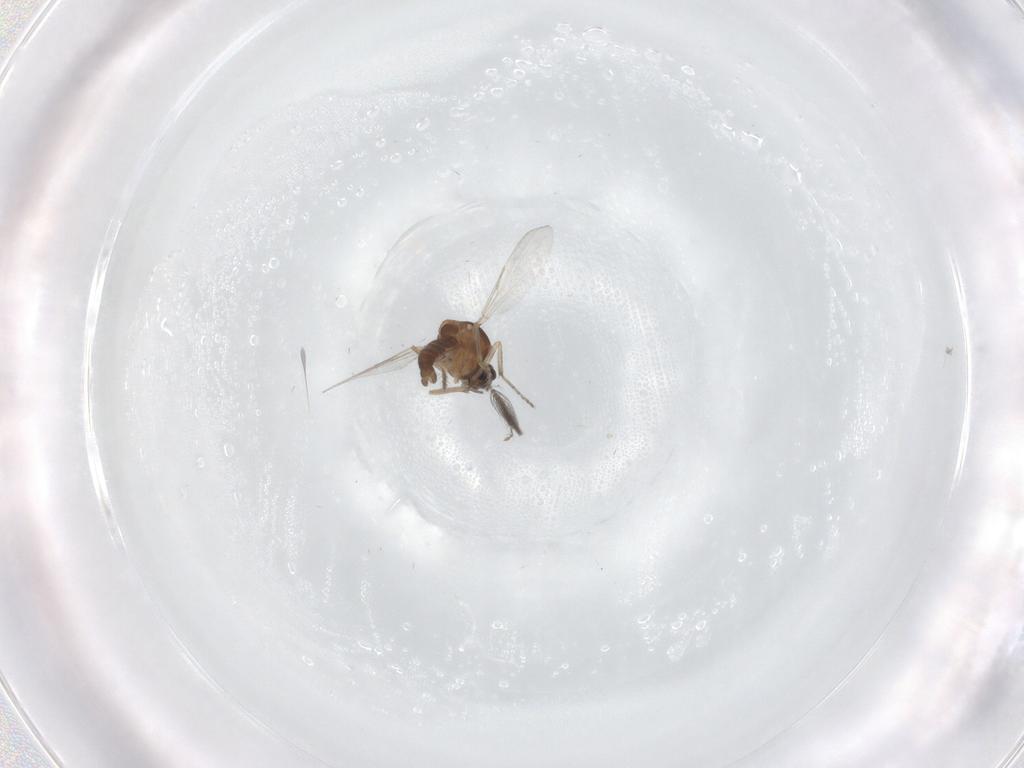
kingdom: Animalia
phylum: Arthropoda
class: Insecta
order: Diptera
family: Ceratopogonidae
